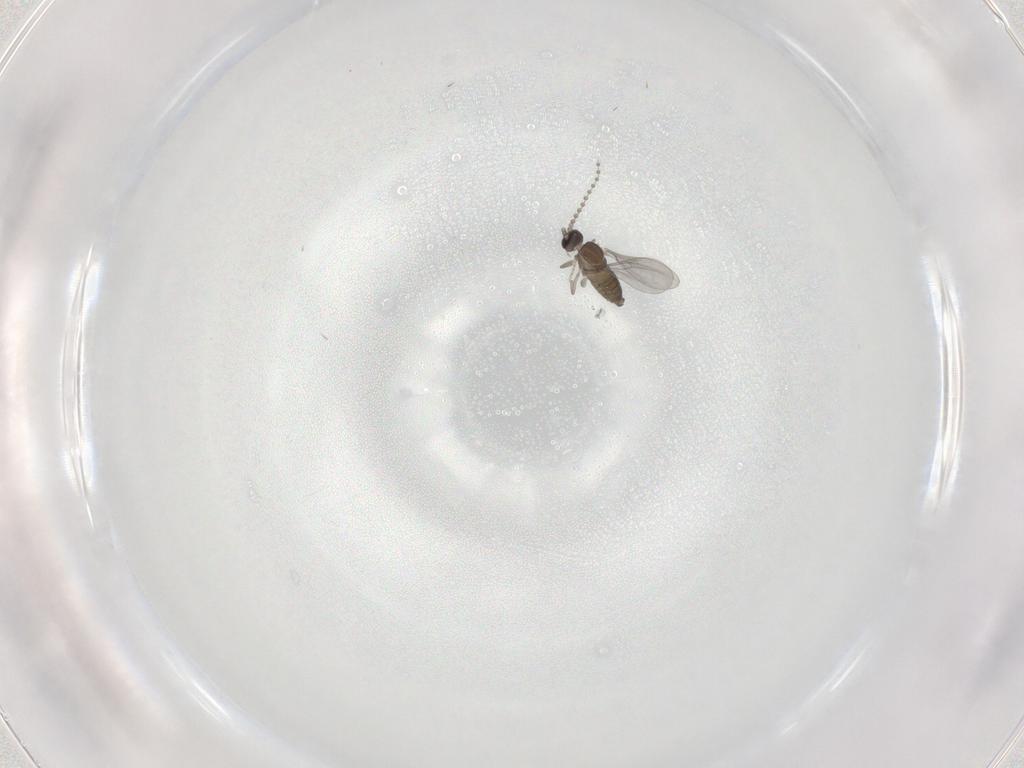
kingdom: Animalia
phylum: Arthropoda
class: Insecta
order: Diptera
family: Cecidomyiidae
